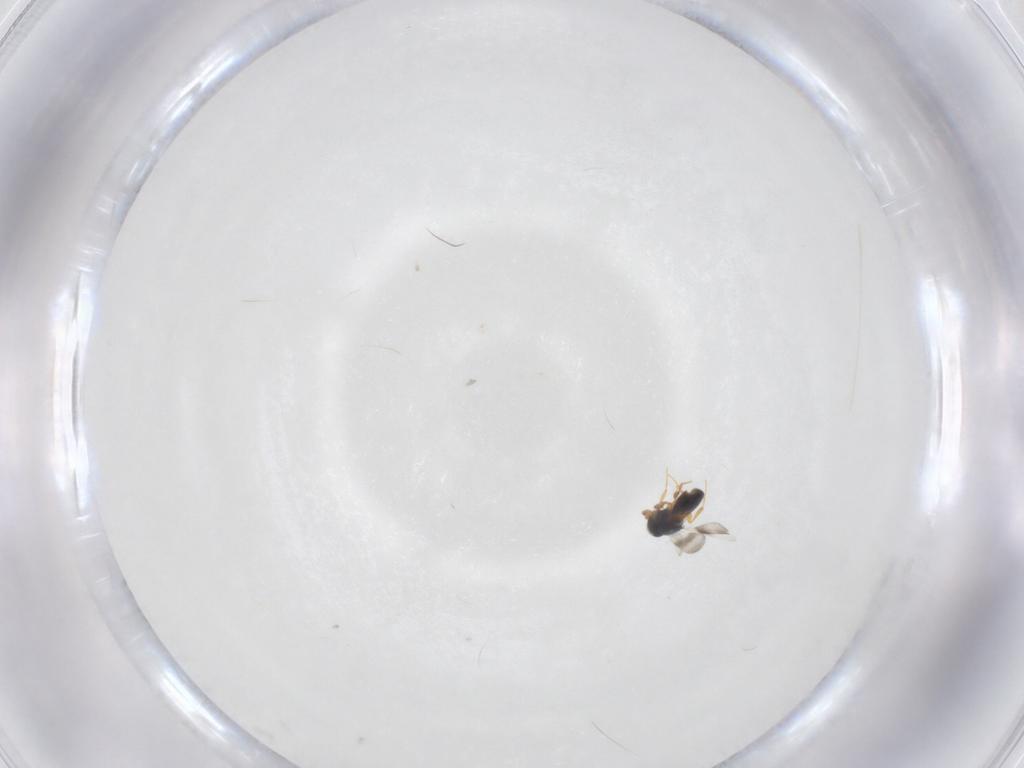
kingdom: Animalia
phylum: Arthropoda
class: Insecta
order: Hymenoptera
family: Platygastridae
